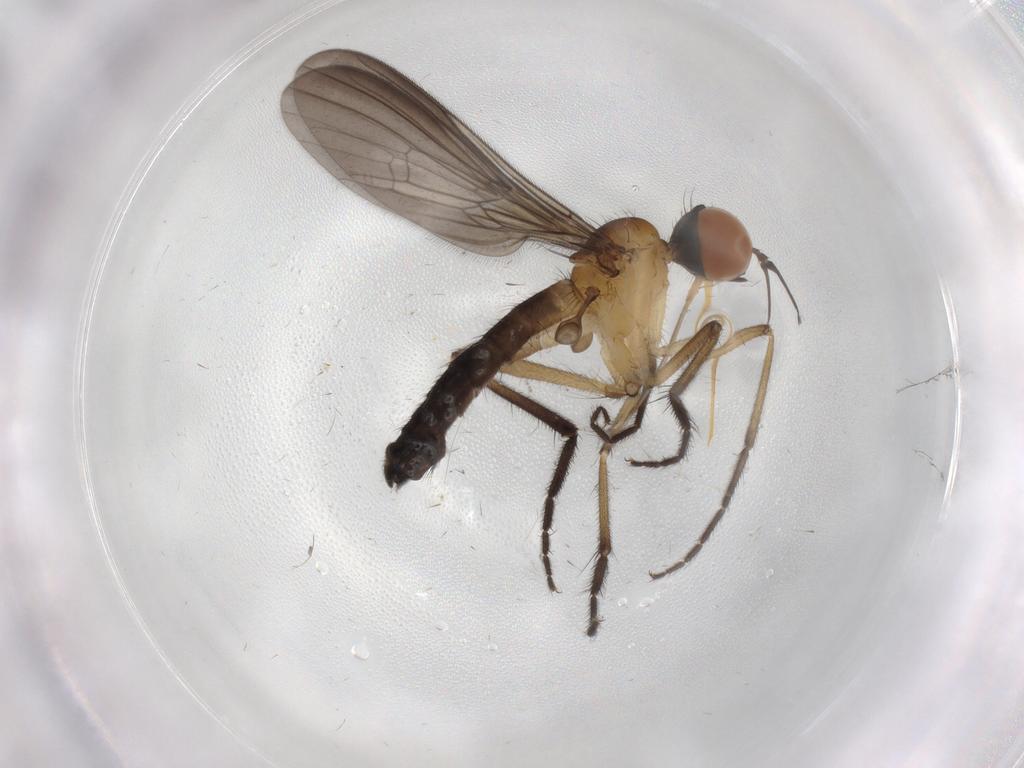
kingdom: Animalia
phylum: Arthropoda
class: Insecta
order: Diptera
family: Empididae
